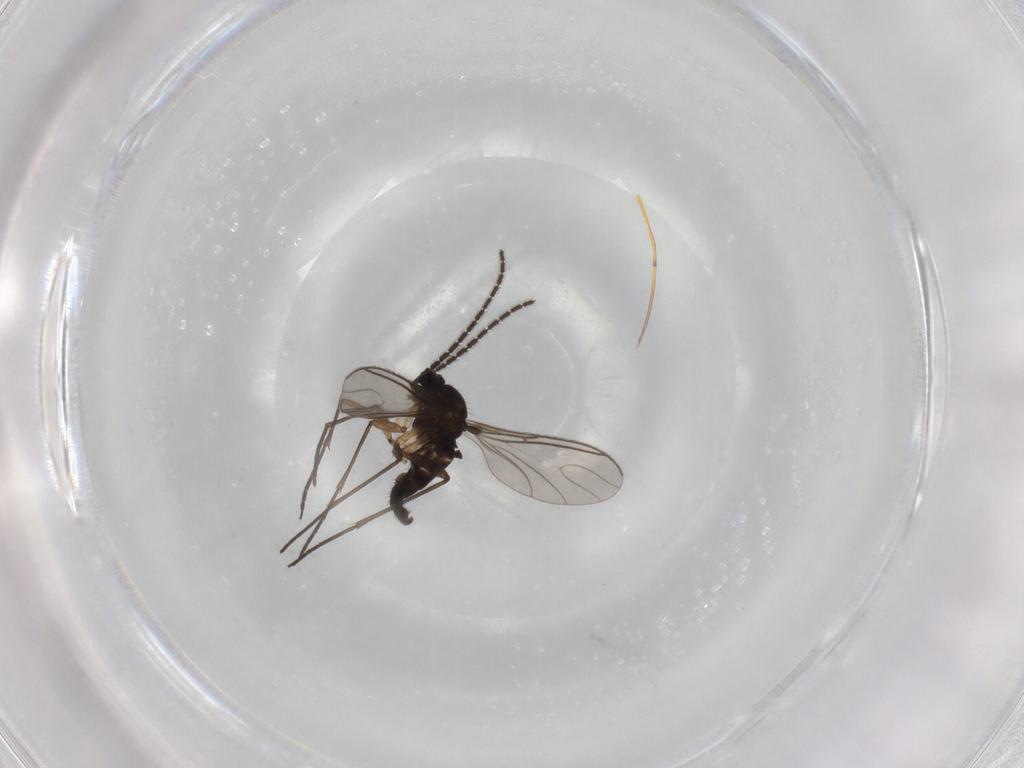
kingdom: Animalia
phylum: Arthropoda
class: Insecta
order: Diptera
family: Sciaridae
